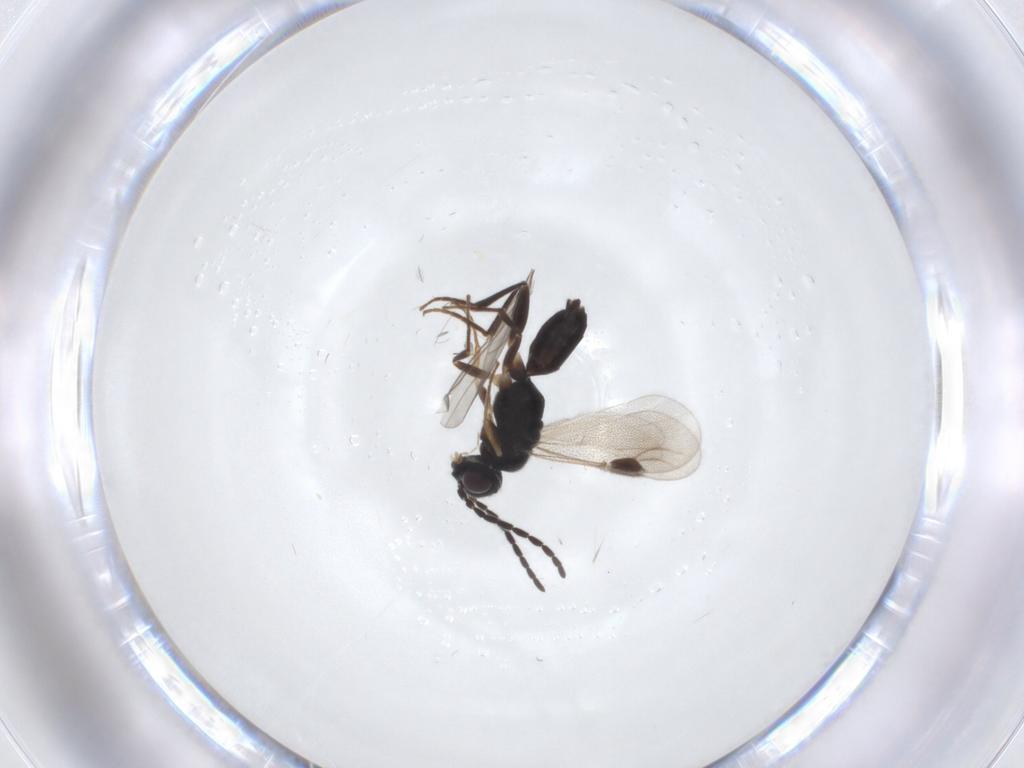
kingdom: Animalia
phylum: Arthropoda
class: Insecta
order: Hymenoptera
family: Dryinidae
